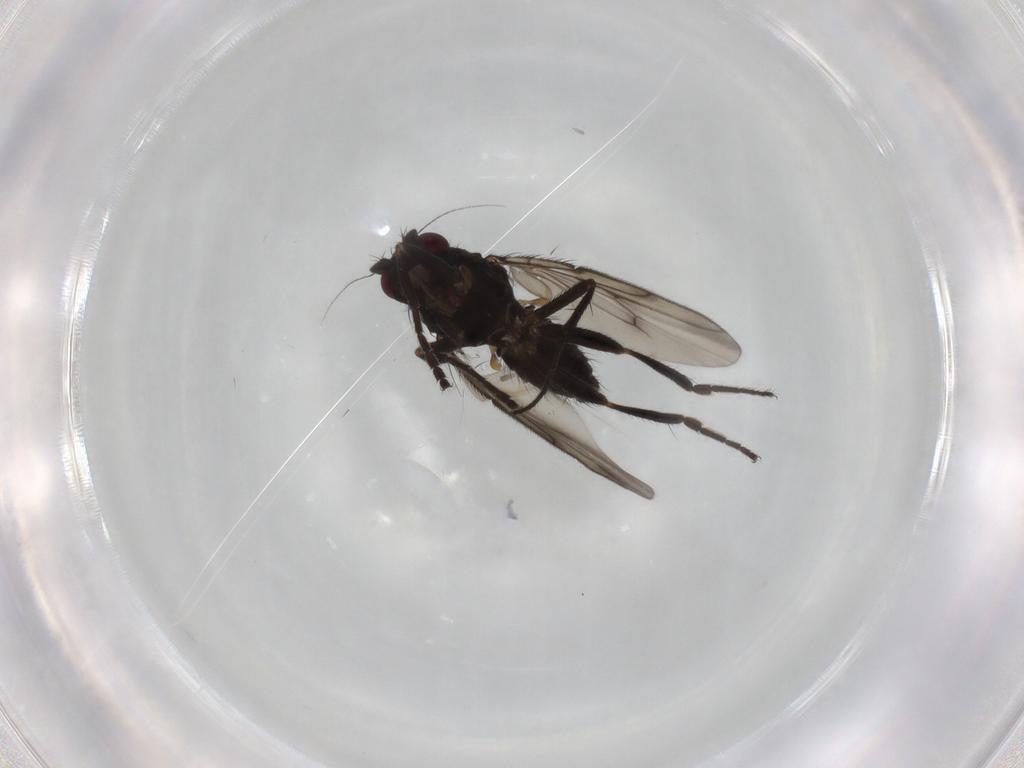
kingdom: Animalia
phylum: Arthropoda
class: Insecta
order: Diptera
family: Sphaeroceridae
